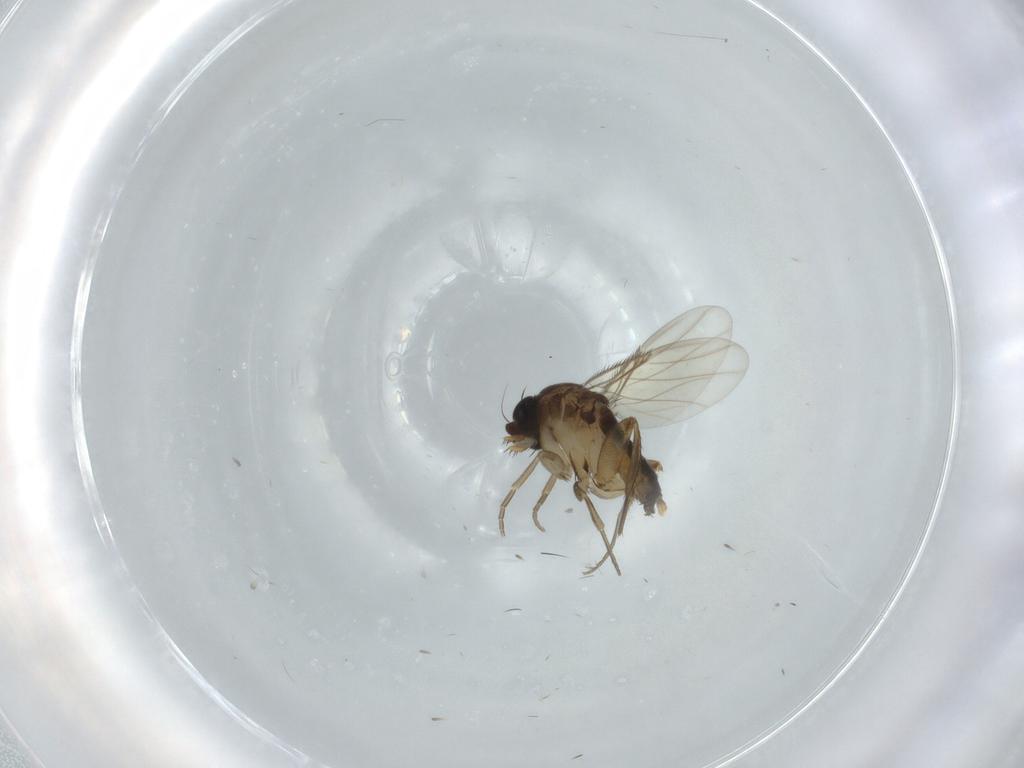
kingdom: Animalia
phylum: Arthropoda
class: Insecta
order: Diptera
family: Phoridae
